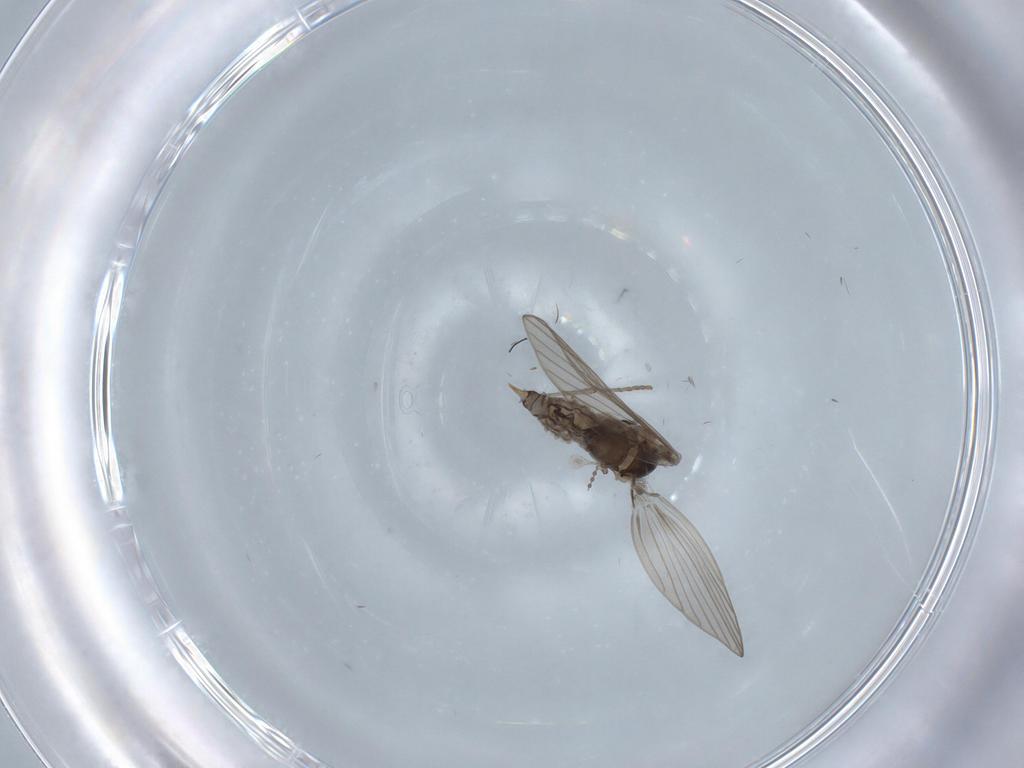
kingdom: Animalia
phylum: Arthropoda
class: Insecta
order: Diptera
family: Psychodidae
